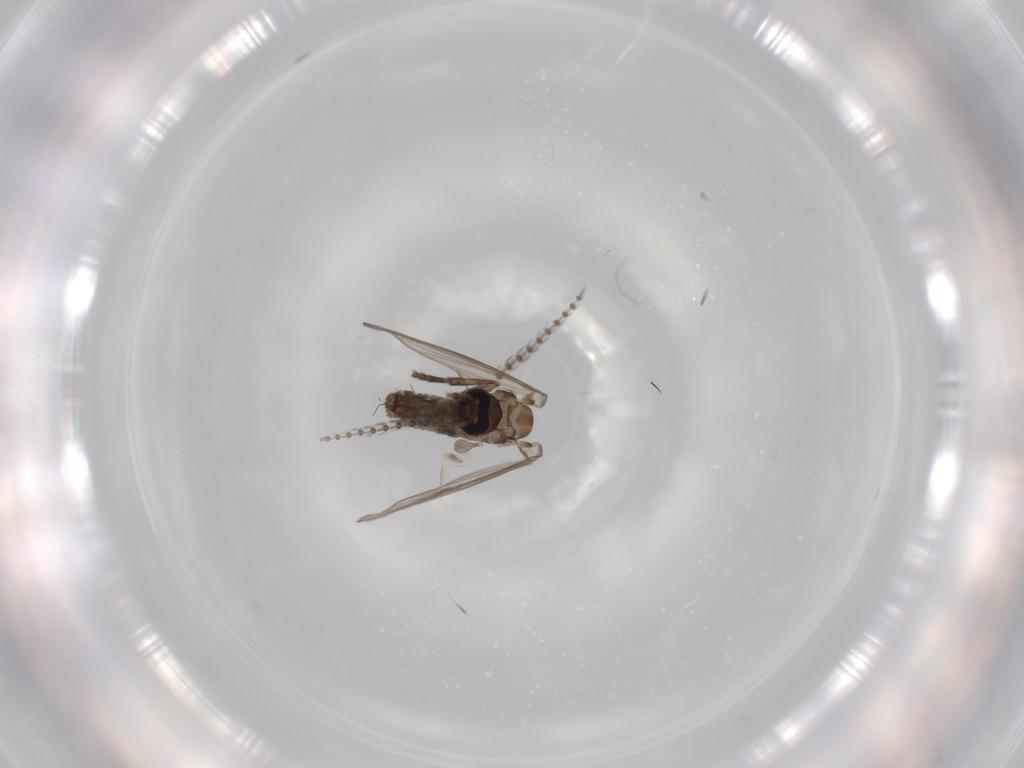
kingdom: Animalia
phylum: Arthropoda
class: Insecta
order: Diptera
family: Psychodidae
